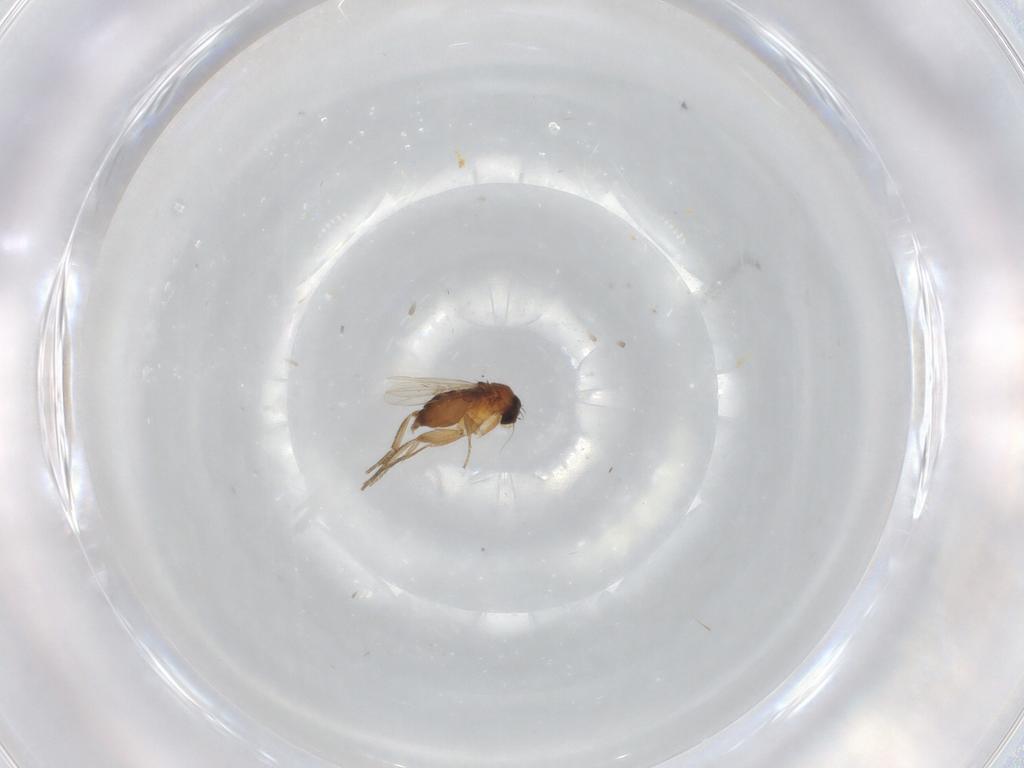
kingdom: Animalia
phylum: Arthropoda
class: Insecta
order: Diptera
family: Phoridae
